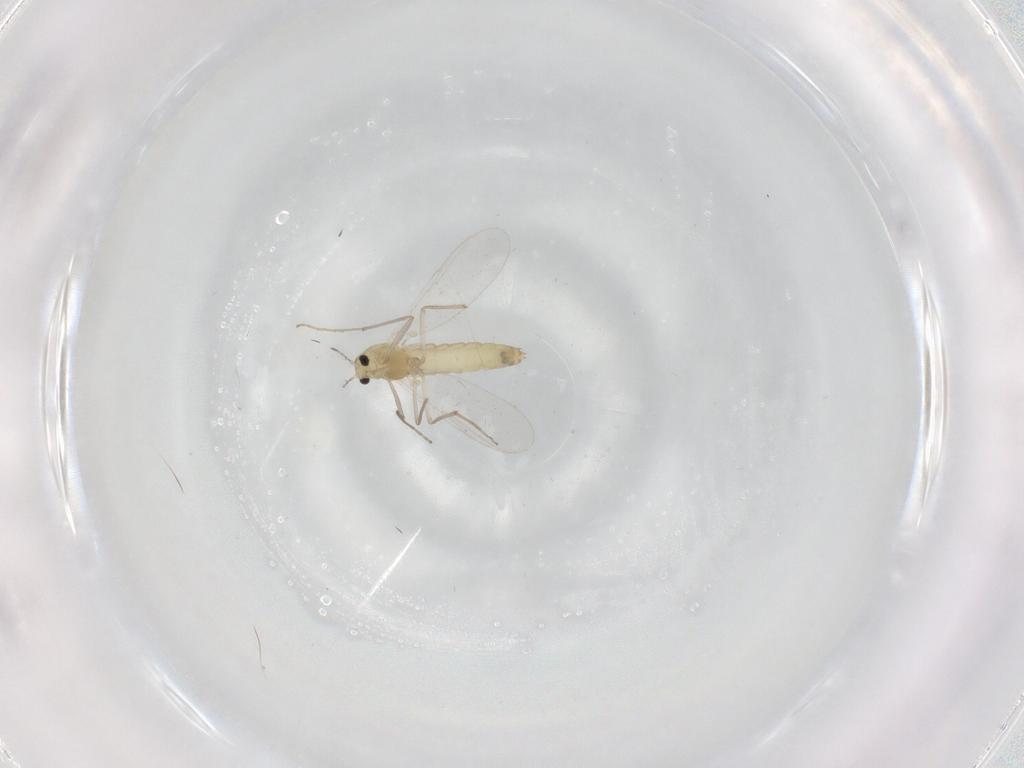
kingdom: Animalia
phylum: Arthropoda
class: Insecta
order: Diptera
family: Chironomidae
